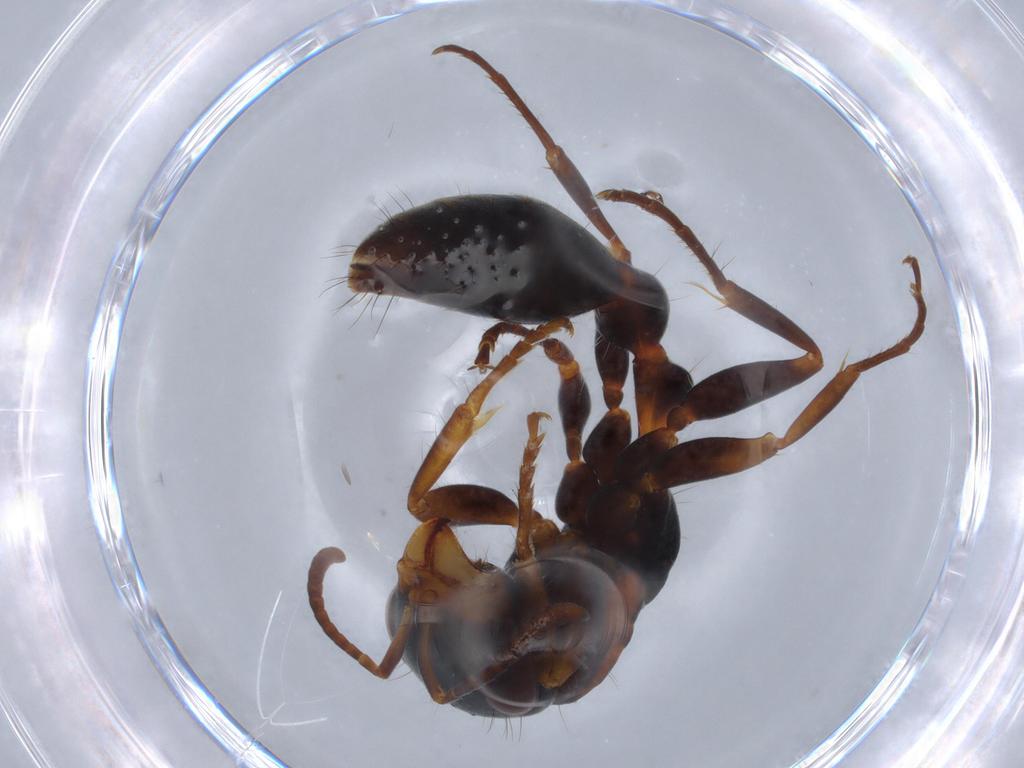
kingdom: Animalia
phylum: Arthropoda
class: Insecta
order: Hymenoptera
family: Formicidae
